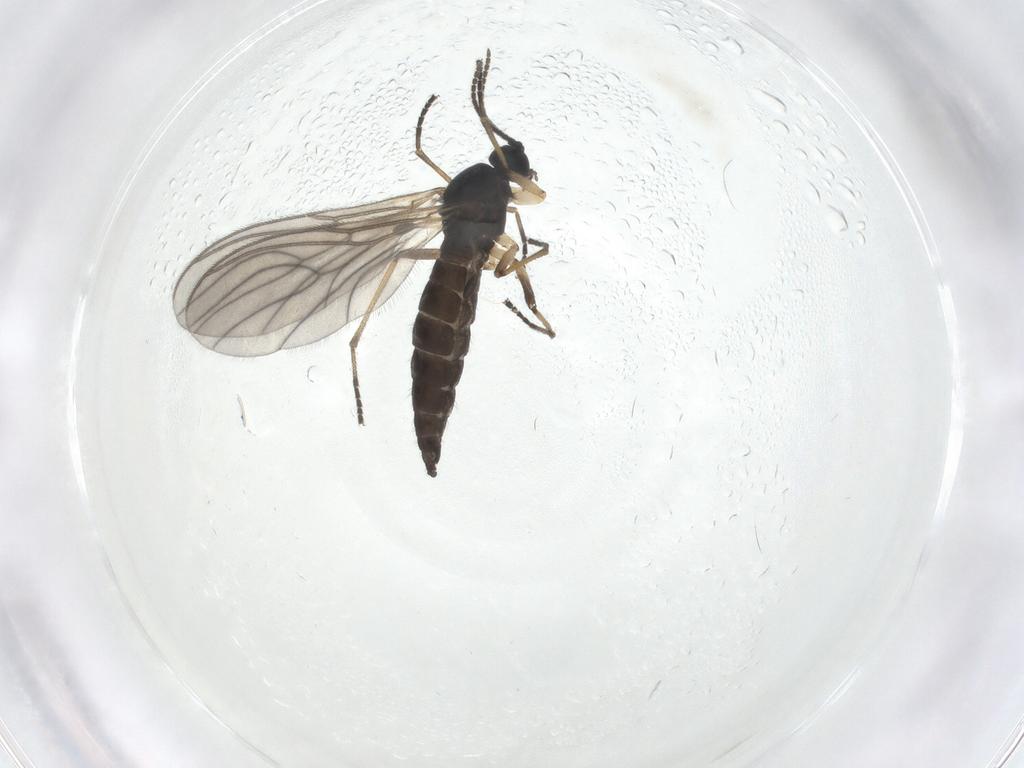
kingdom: Animalia
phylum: Arthropoda
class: Insecta
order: Diptera
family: Sciaridae
